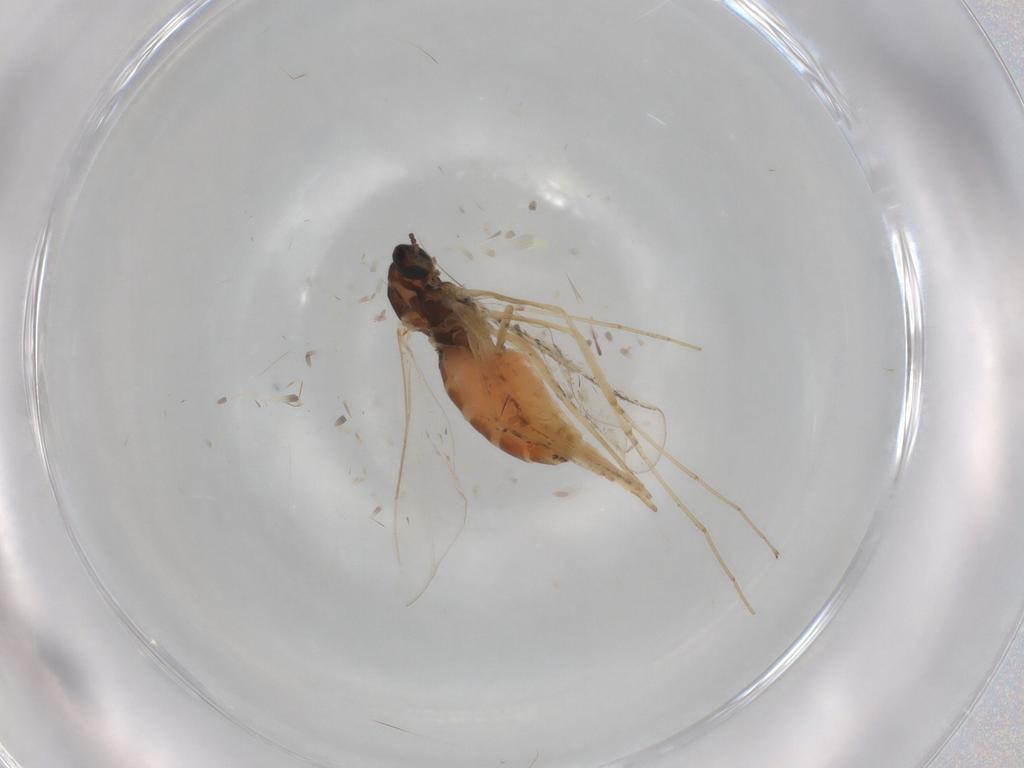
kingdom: Animalia
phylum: Arthropoda
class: Insecta
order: Diptera
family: Cecidomyiidae
